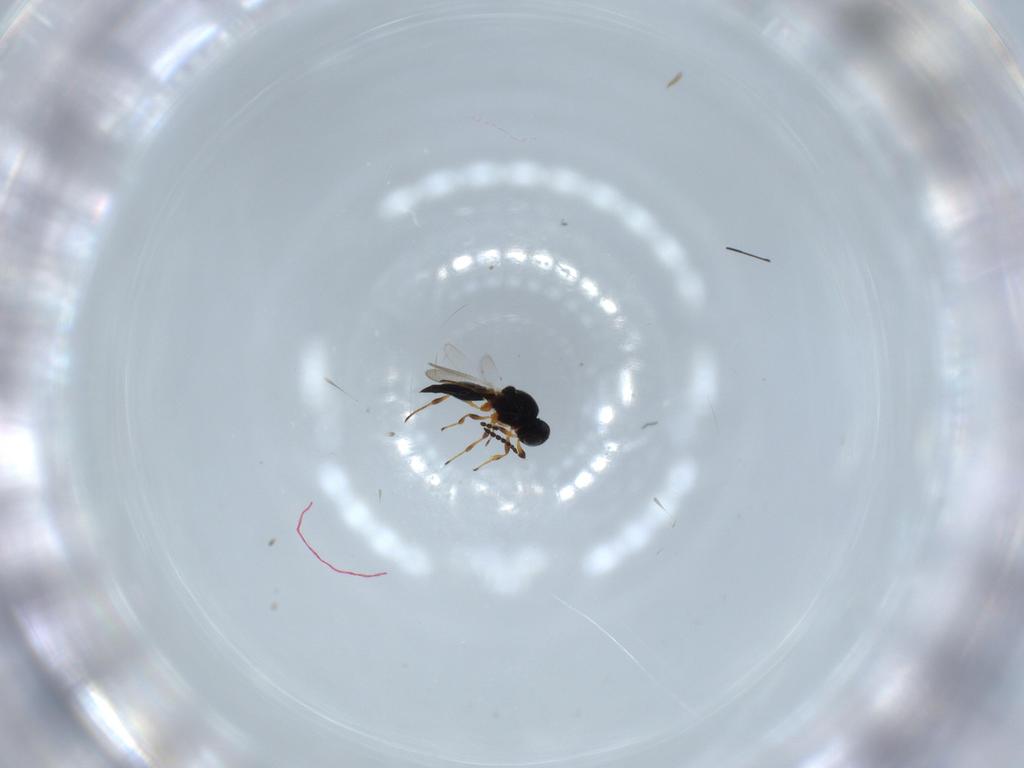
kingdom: Animalia
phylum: Arthropoda
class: Insecta
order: Hymenoptera
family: Platygastridae
